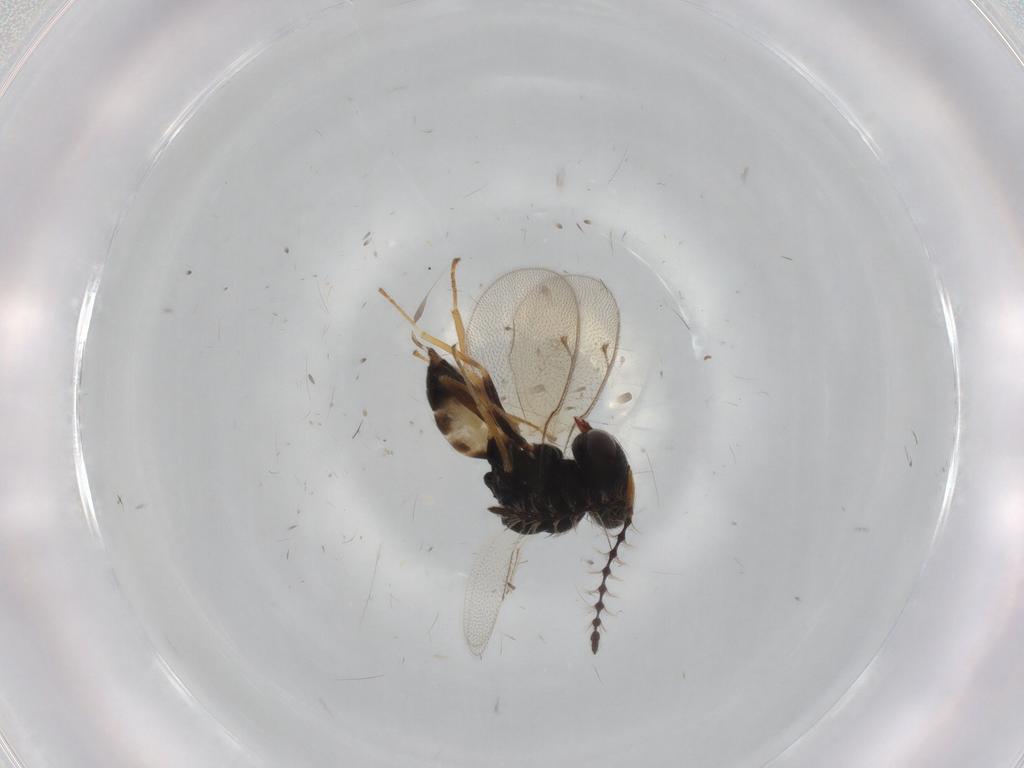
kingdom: Animalia
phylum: Arthropoda
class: Insecta
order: Hymenoptera
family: Pteromalidae
